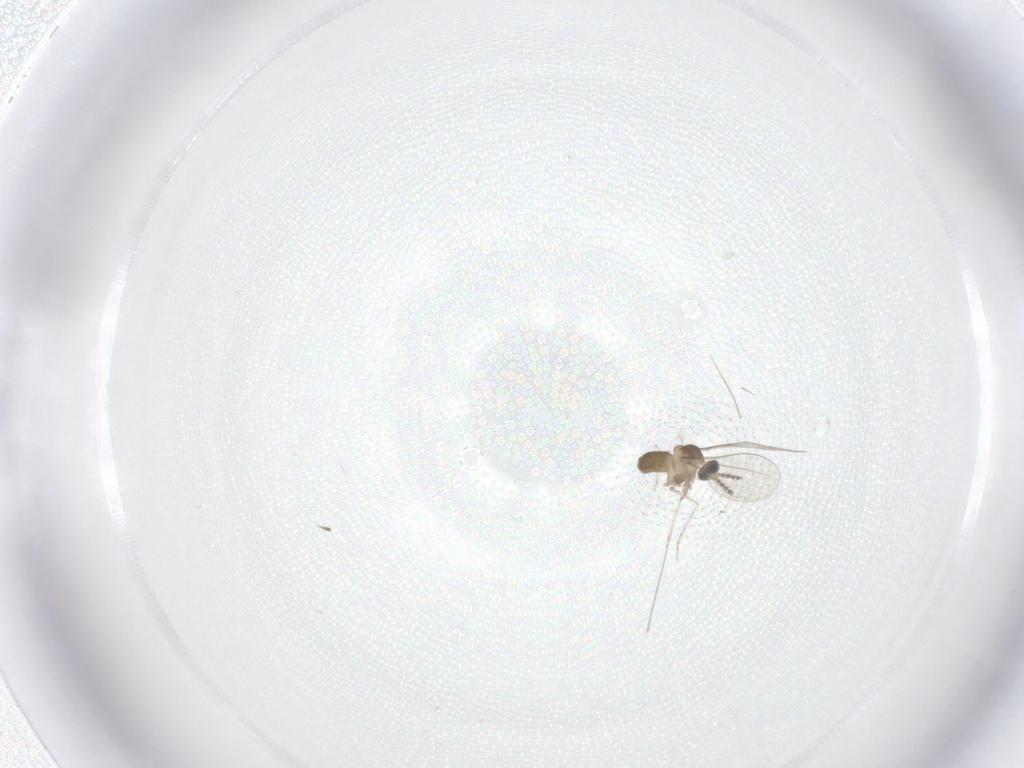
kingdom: Animalia
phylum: Arthropoda
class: Insecta
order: Diptera
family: Cecidomyiidae
